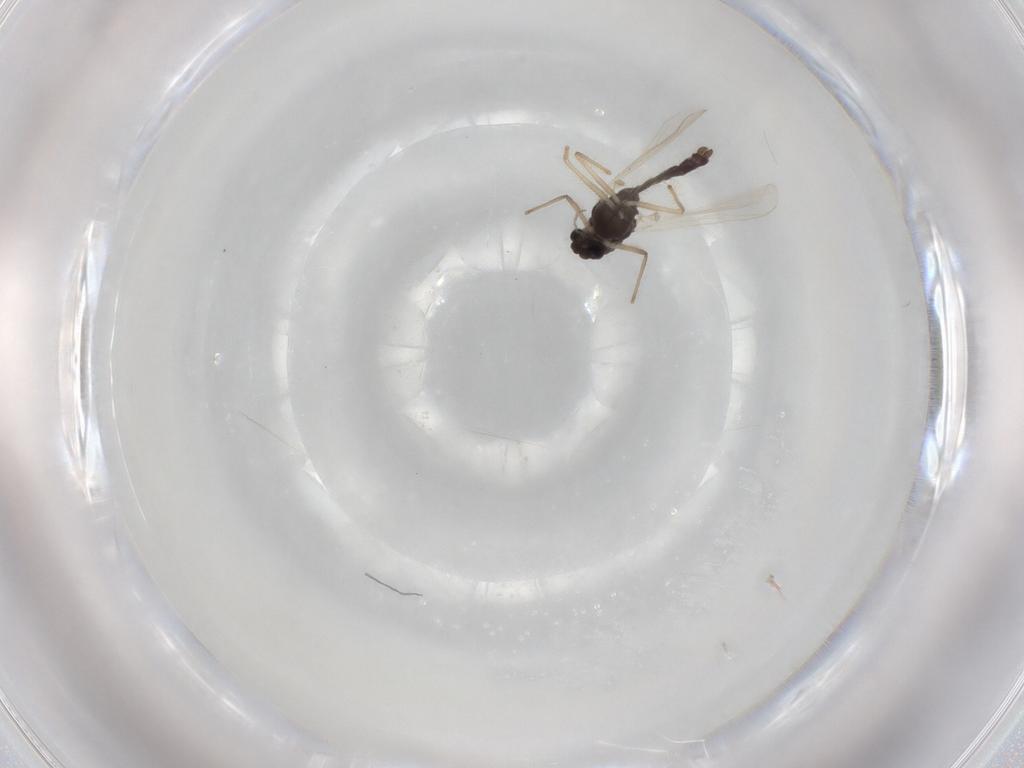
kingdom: Animalia
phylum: Arthropoda
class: Insecta
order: Diptera
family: Chironomidae
